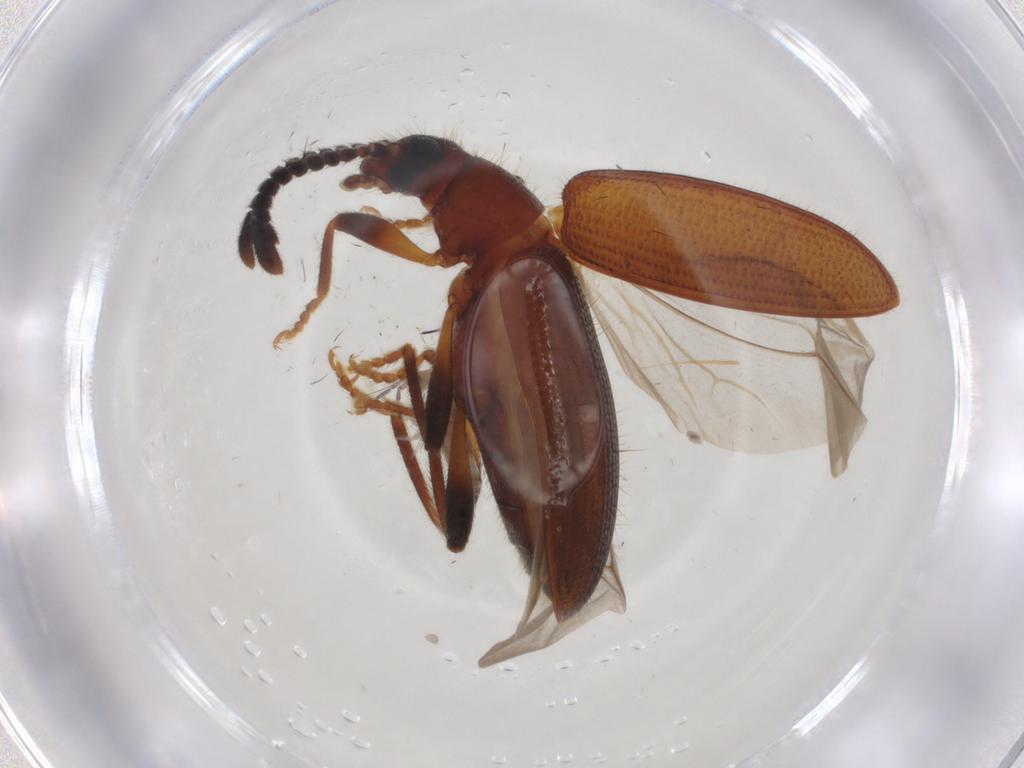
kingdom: Animalia
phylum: Arthropoda
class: Insecta
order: Coleoptera
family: Tenebrionidae
